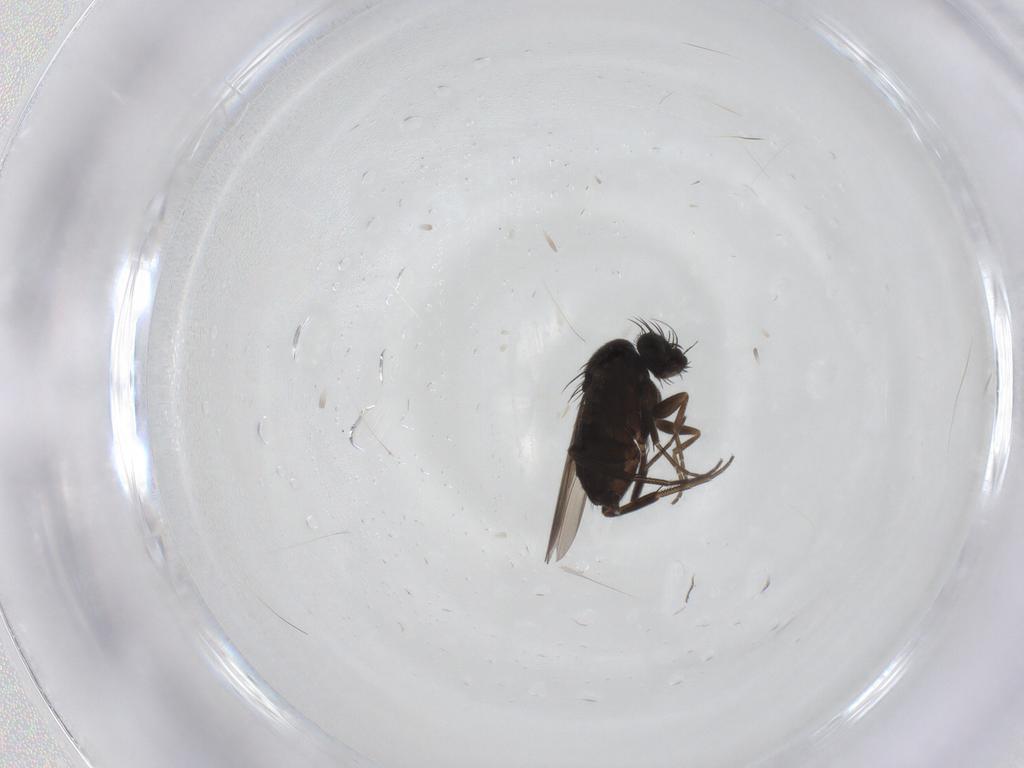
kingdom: Animalia
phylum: Arthropoda
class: Insecta
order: Diptera
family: Phoridae
